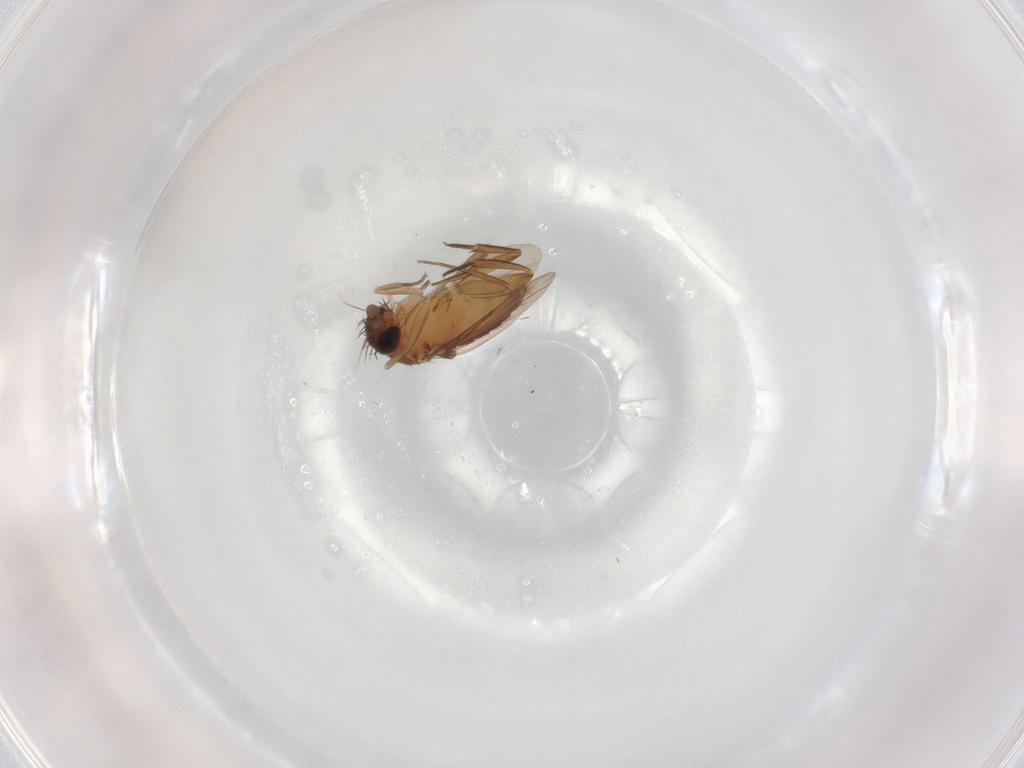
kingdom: Animalia
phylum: Arthropoda
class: Insecta
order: Diptera
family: Phoridae
